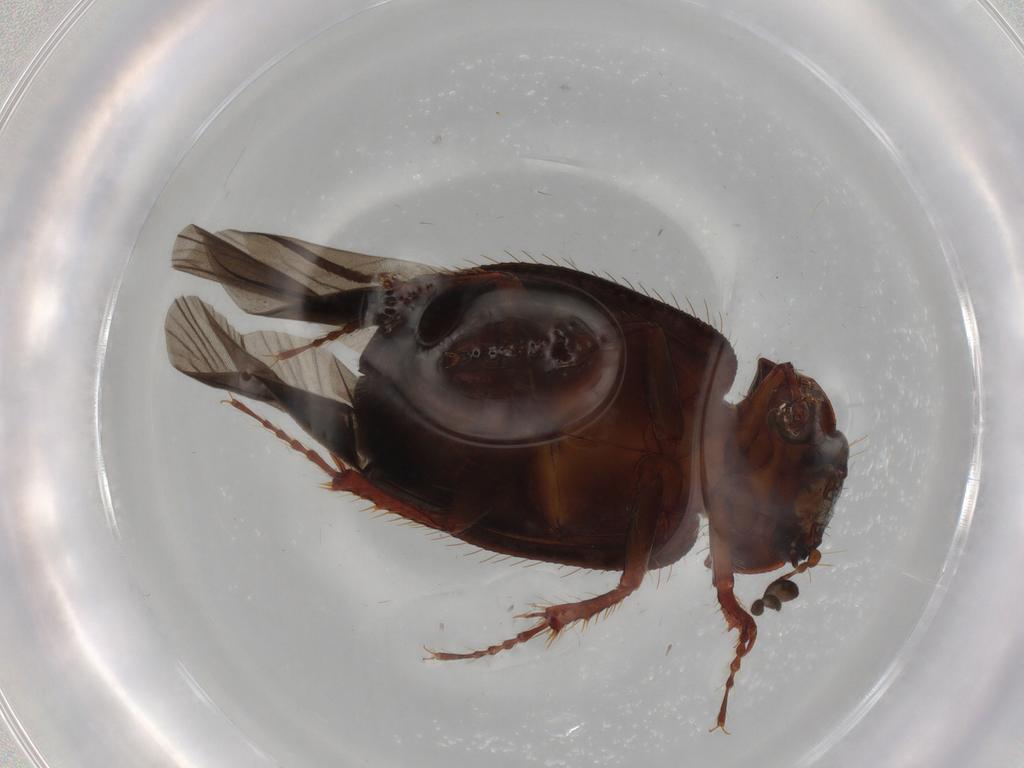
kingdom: Animalia
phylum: Arthropoda
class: Insecta
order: Coleoptera
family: Hybosoridae
